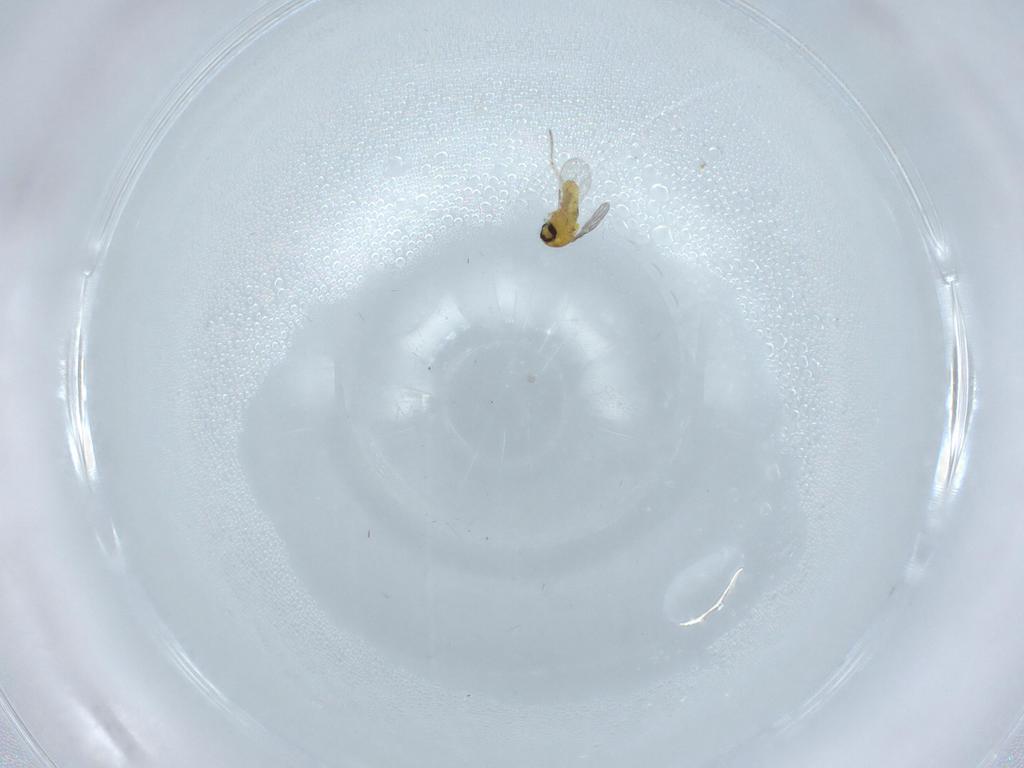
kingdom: Animalia
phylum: Arthropoda
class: Insecta
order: Diptera
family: Ceratopogonidae
